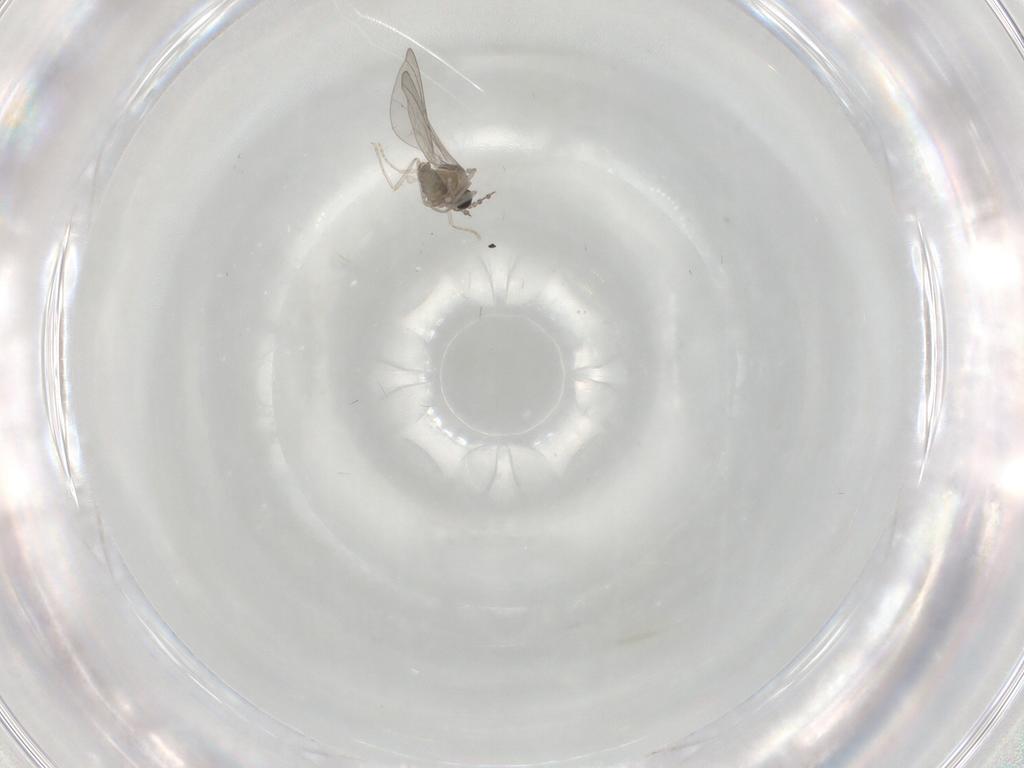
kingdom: Animalia
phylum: Arthropoda
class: Insecta
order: Diptera
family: Cecidomyiidae
